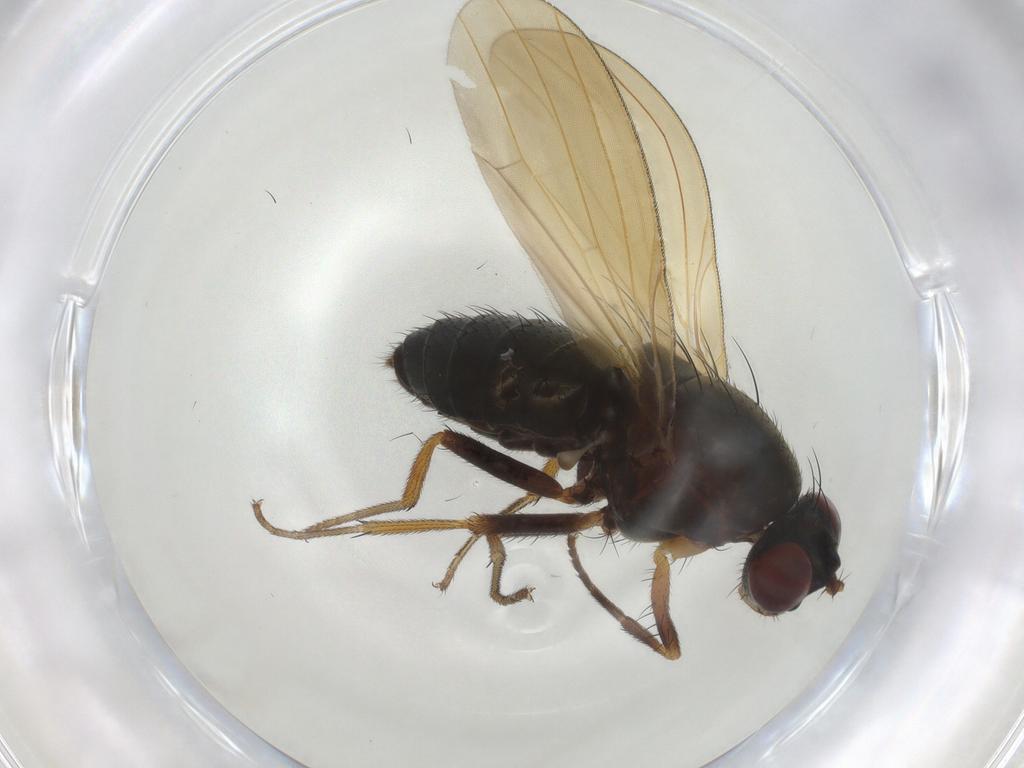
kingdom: Animalia
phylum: Arthropoda
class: Insecta
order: Diptera
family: Lauxaniidae
